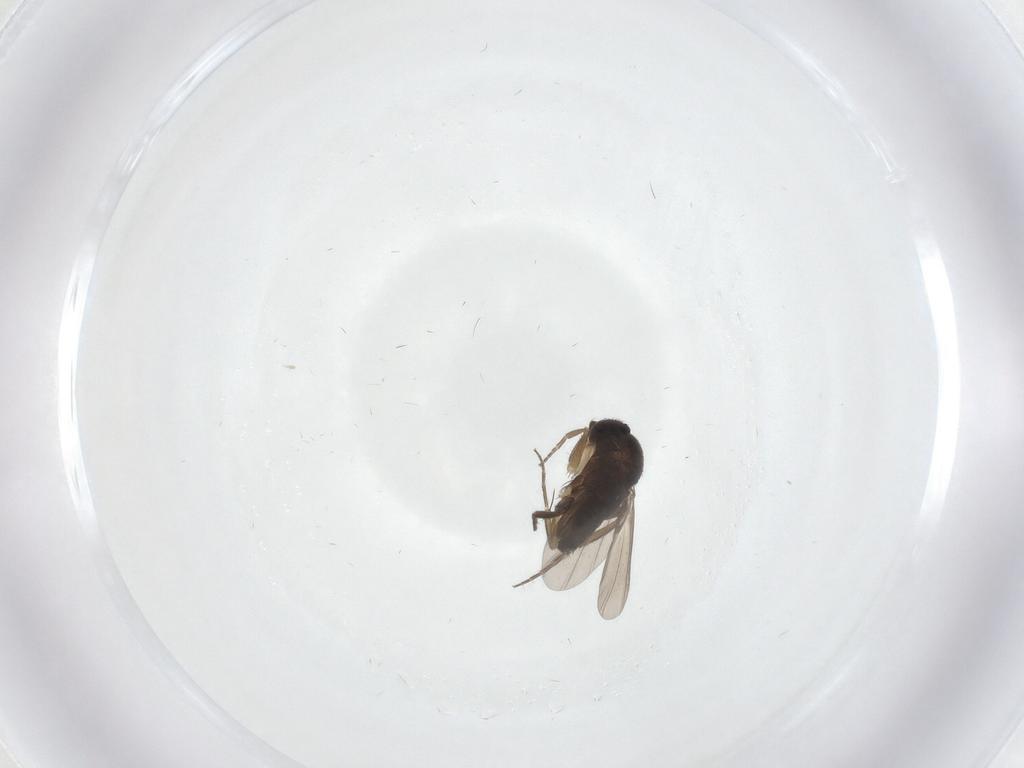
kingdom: Animalia
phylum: Arthropoda
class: Insecta
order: Diptera
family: Phoridae
